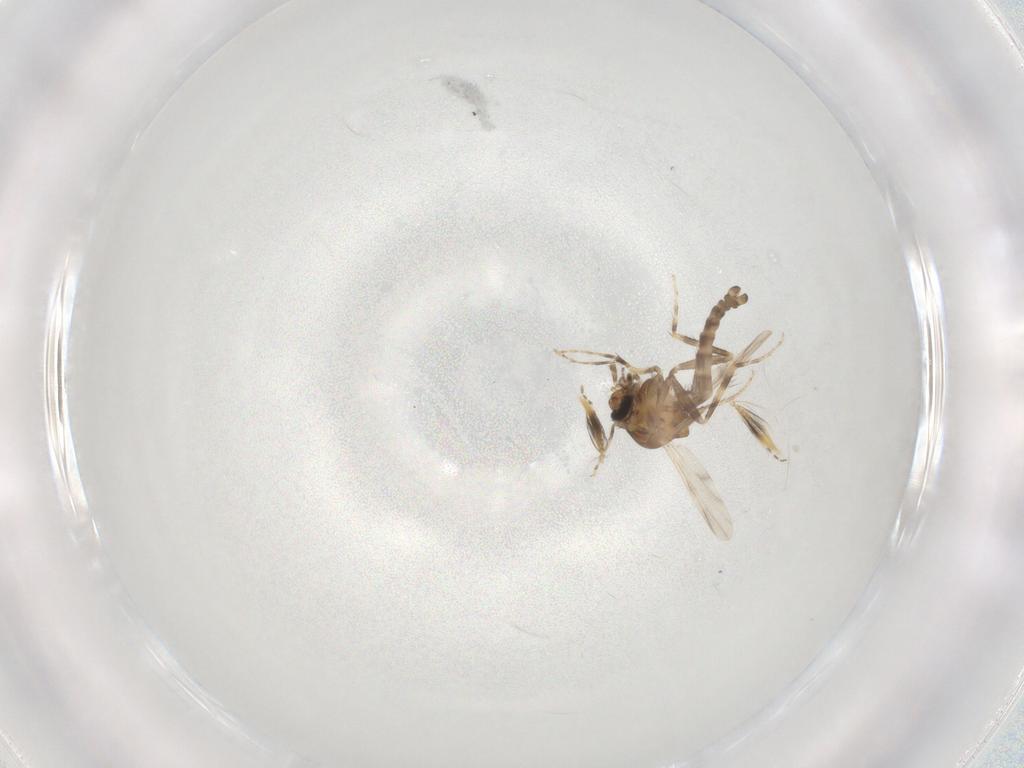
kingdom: Animalia
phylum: Arthropoda
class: Insecta
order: Diptera
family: Ceratopogonidae
